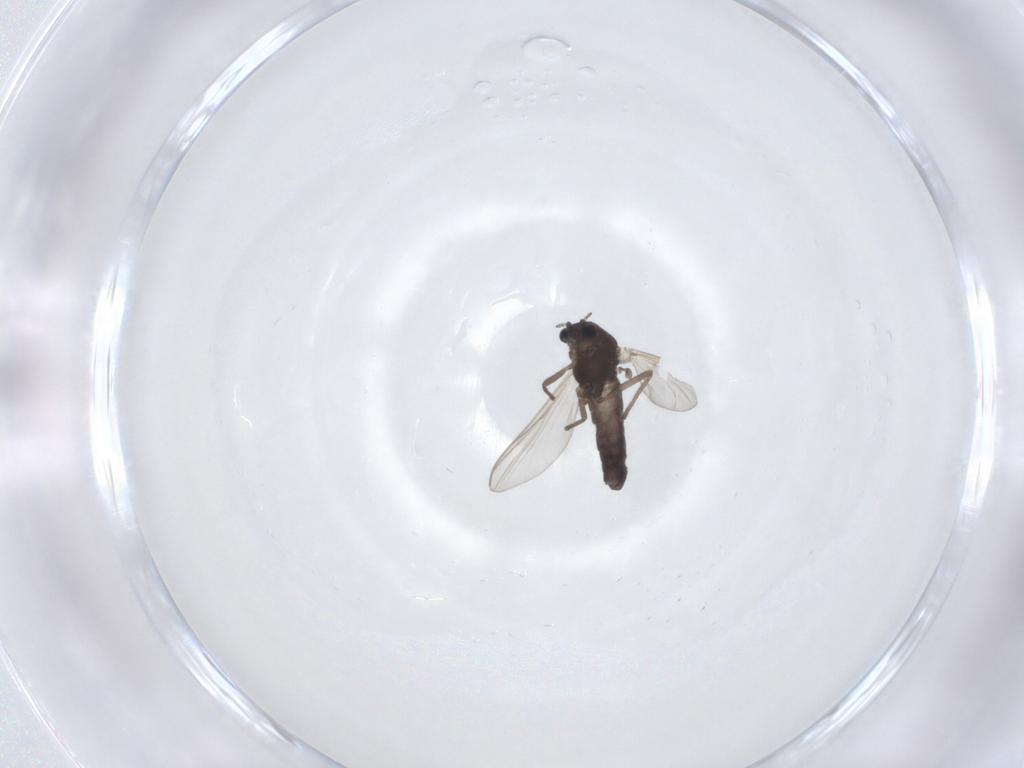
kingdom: Animalia
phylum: Arthropoda
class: Insecta
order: Diptera
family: Chironomidae
